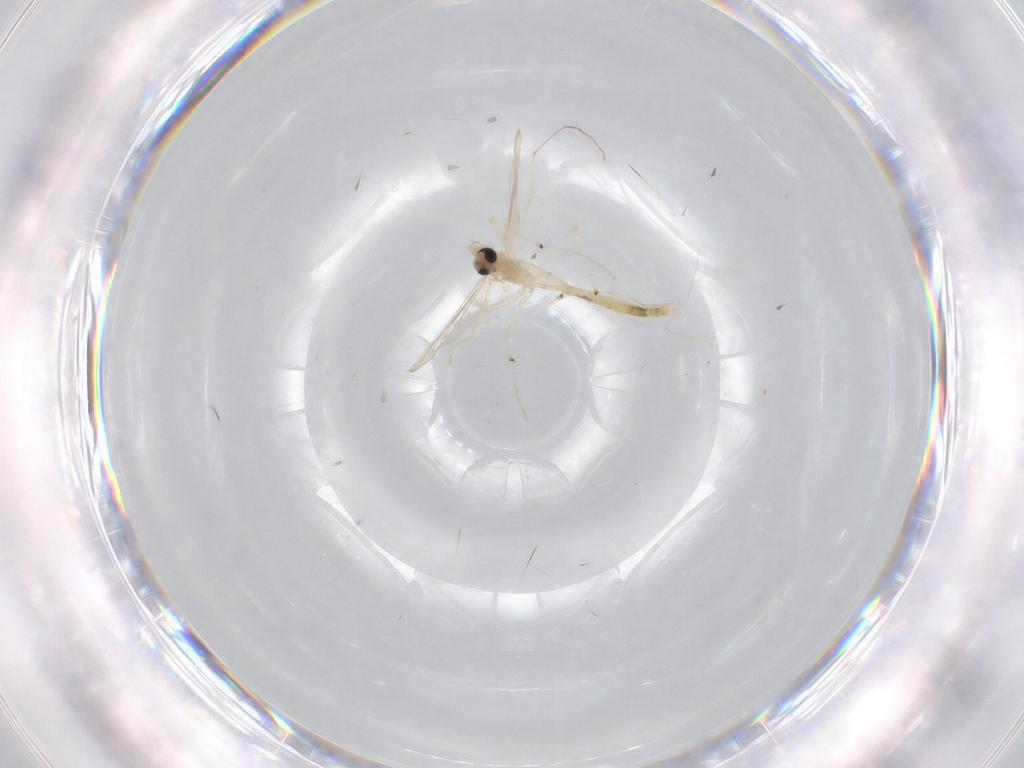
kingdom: Animalia
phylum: Arthropoda
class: Insecta
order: Diptera
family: Chironomidae
